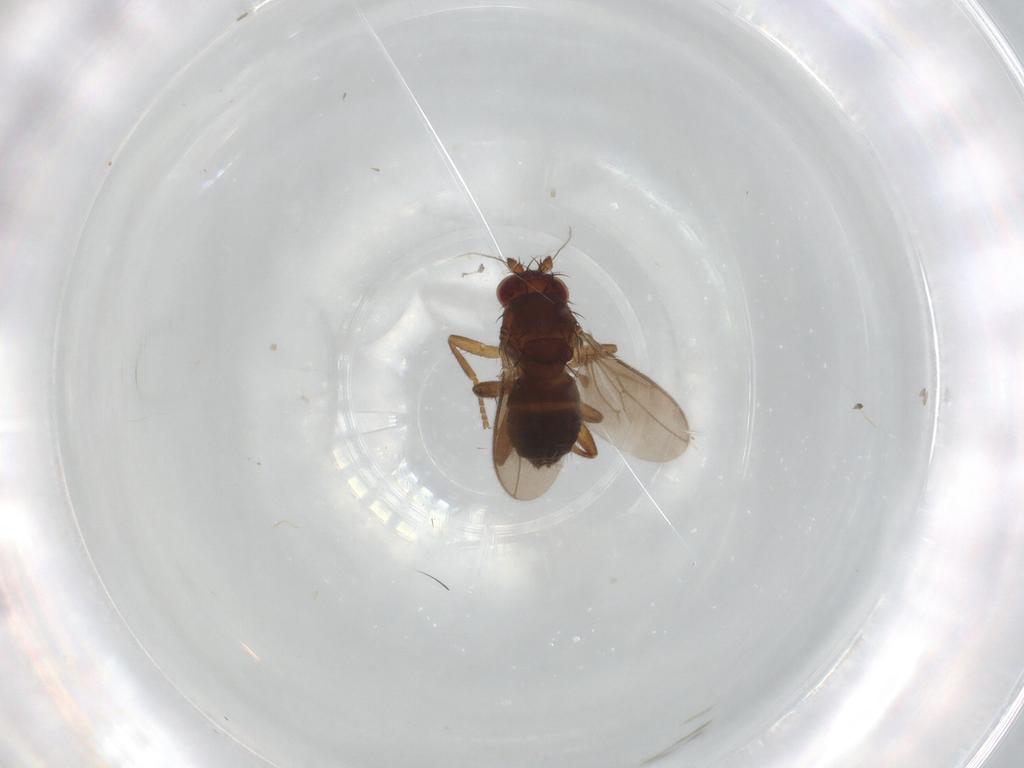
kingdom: Animalia
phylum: Arthropoda
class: Insecta
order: Diptera
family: Sphaeroceridae
